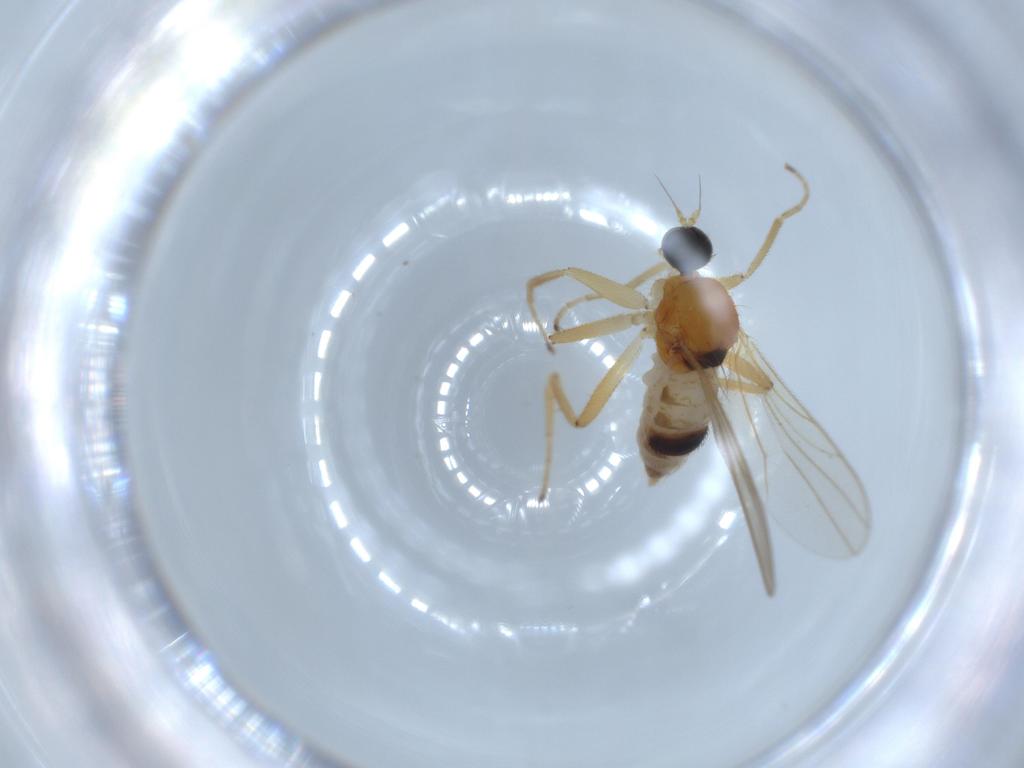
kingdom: Animalia
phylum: Arthropoda
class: Insecta
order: Diptera
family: Hybotidae
